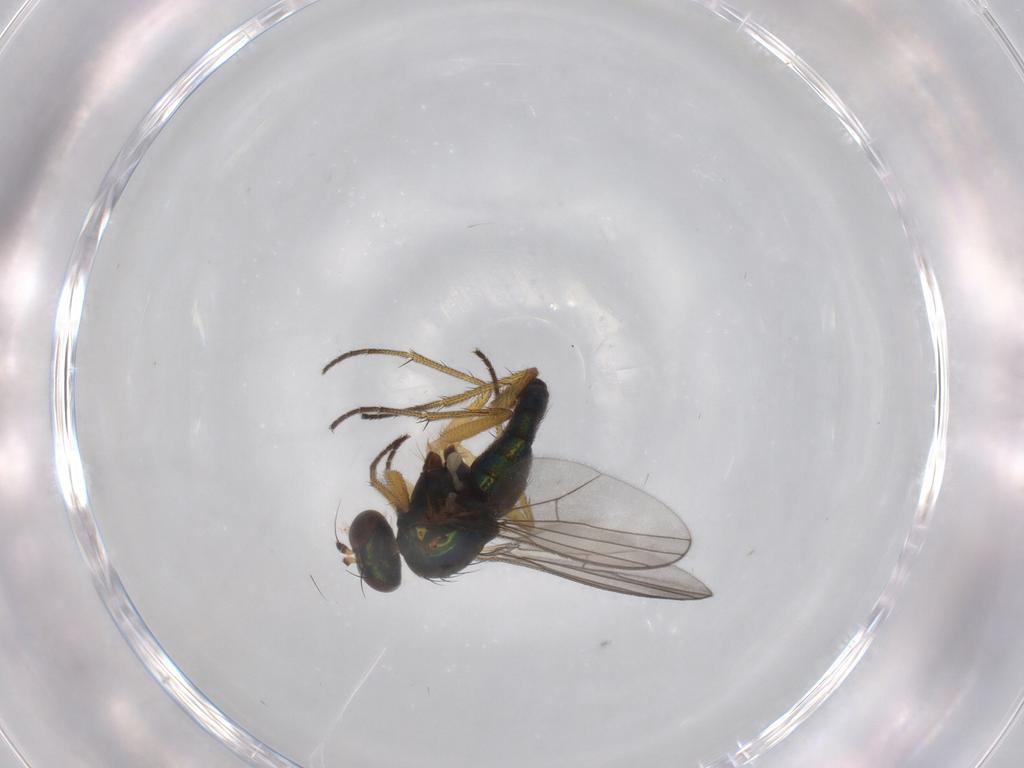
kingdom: Animalia
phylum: Arthropoda
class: Insecta
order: Diptera
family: Dolichopodidae
